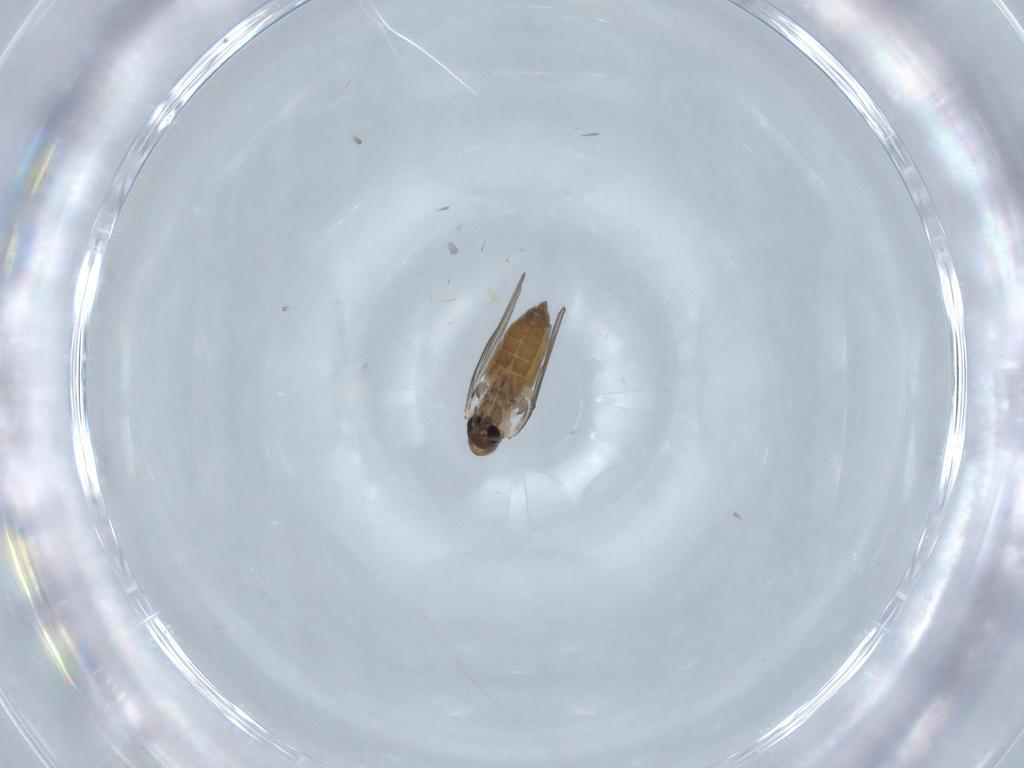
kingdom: Animalia
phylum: Arthropoda
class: Insecta
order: Diptera
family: Psychodidae
